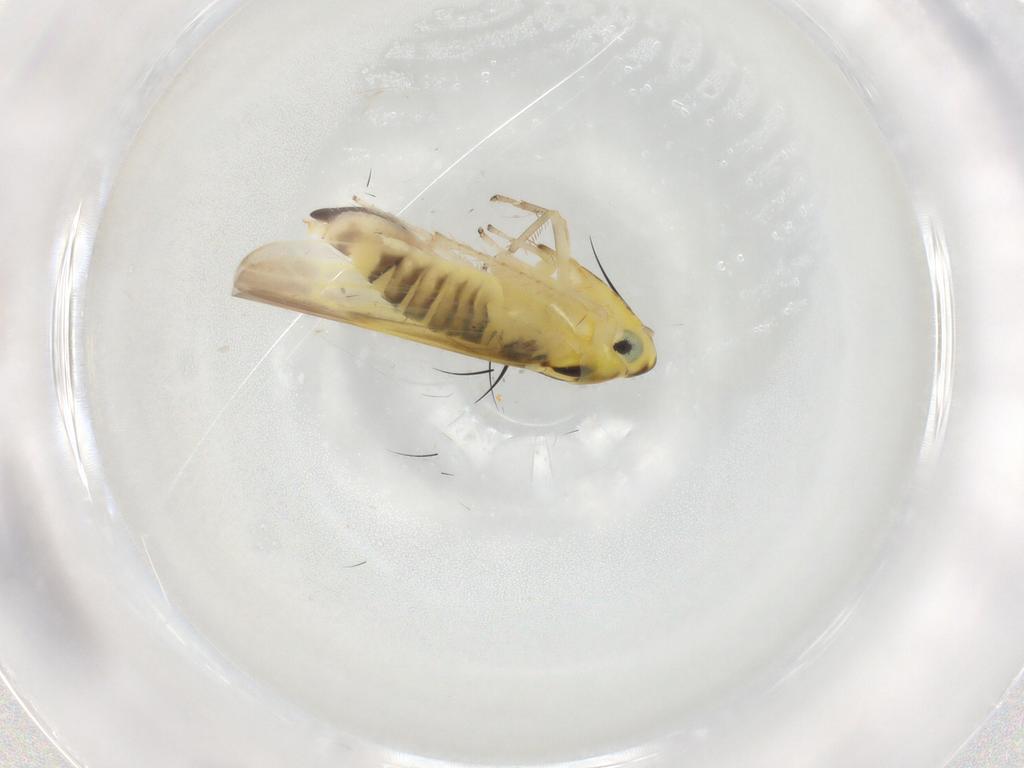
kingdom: Animalia
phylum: Arthropoda
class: Insecta
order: Hemiptera
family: Cicadellidae
